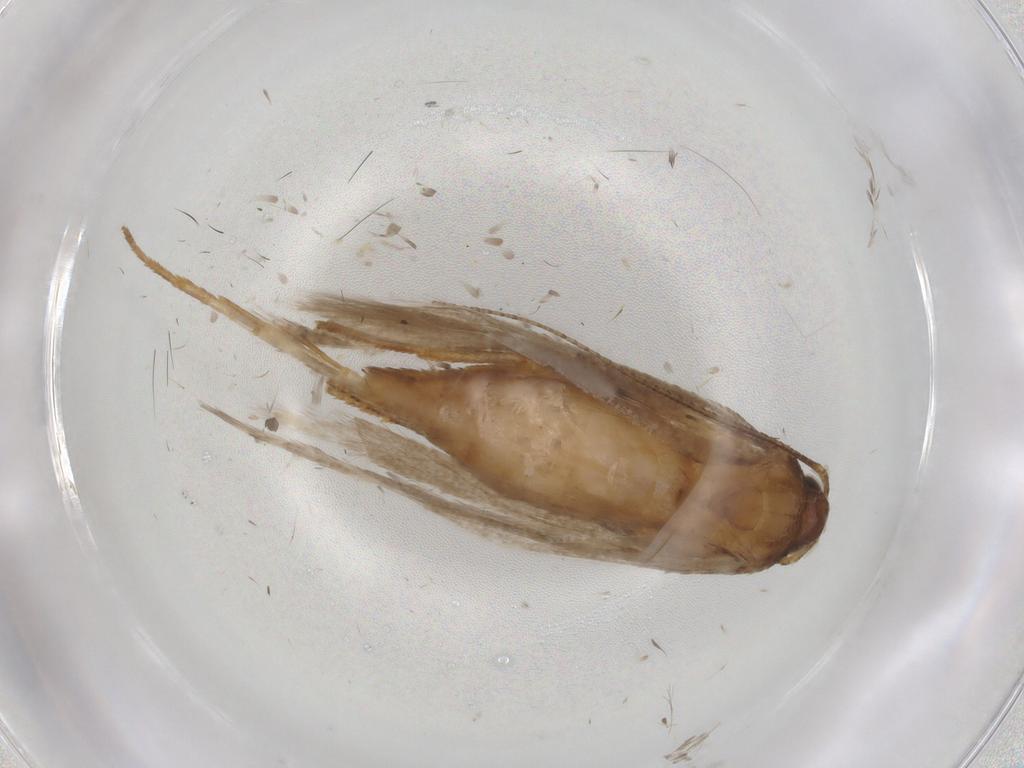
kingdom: Animalia
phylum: Arthropoda
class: Insecta
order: Lepidoptera
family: Gelechiidae
